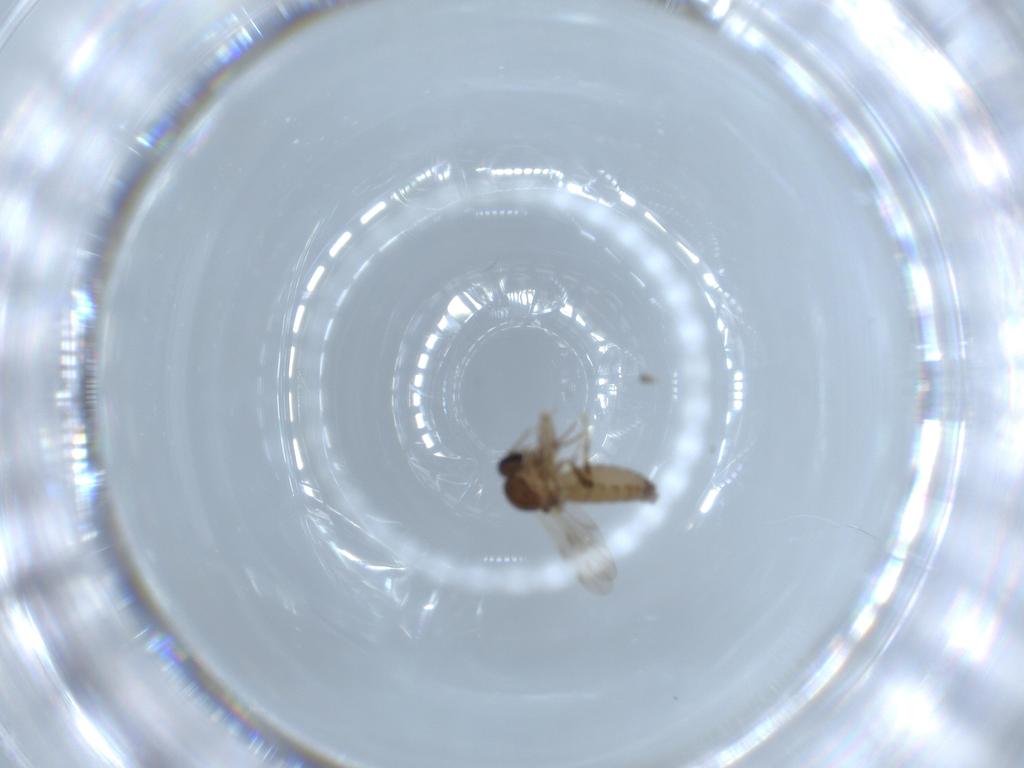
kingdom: Animalia
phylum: Arthropoda
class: Insecta
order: Diptera
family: Ceratopogonidae
